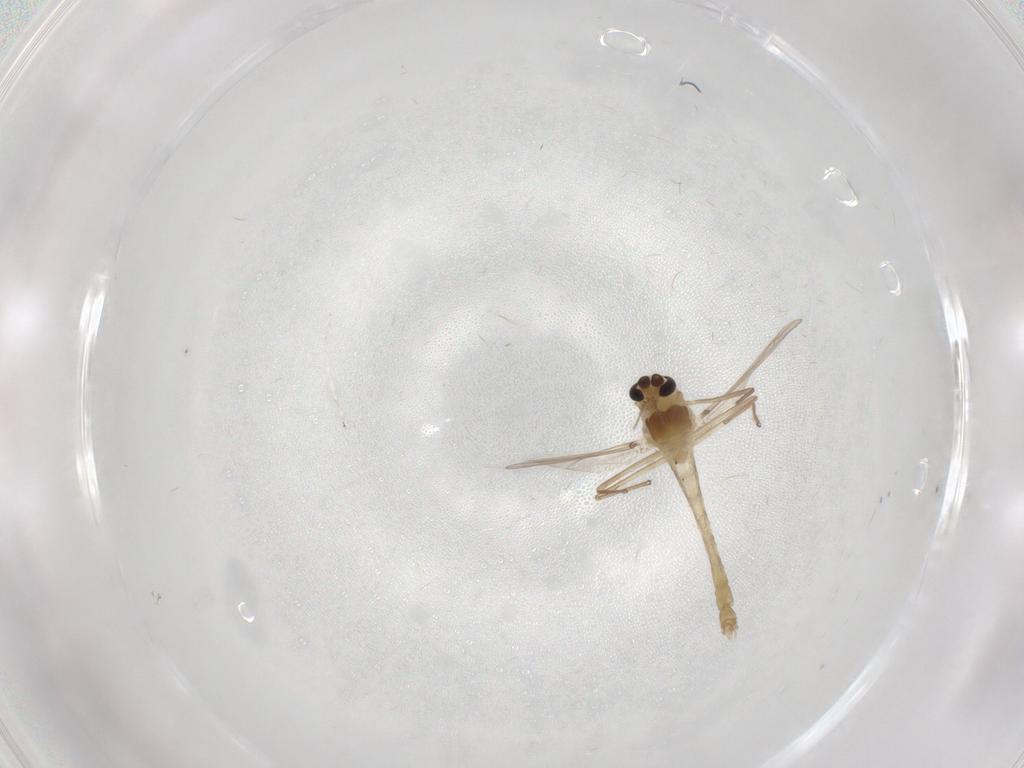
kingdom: Animalia
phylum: Arthropoda
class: Insecta
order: Diptera
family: Chironomidae
